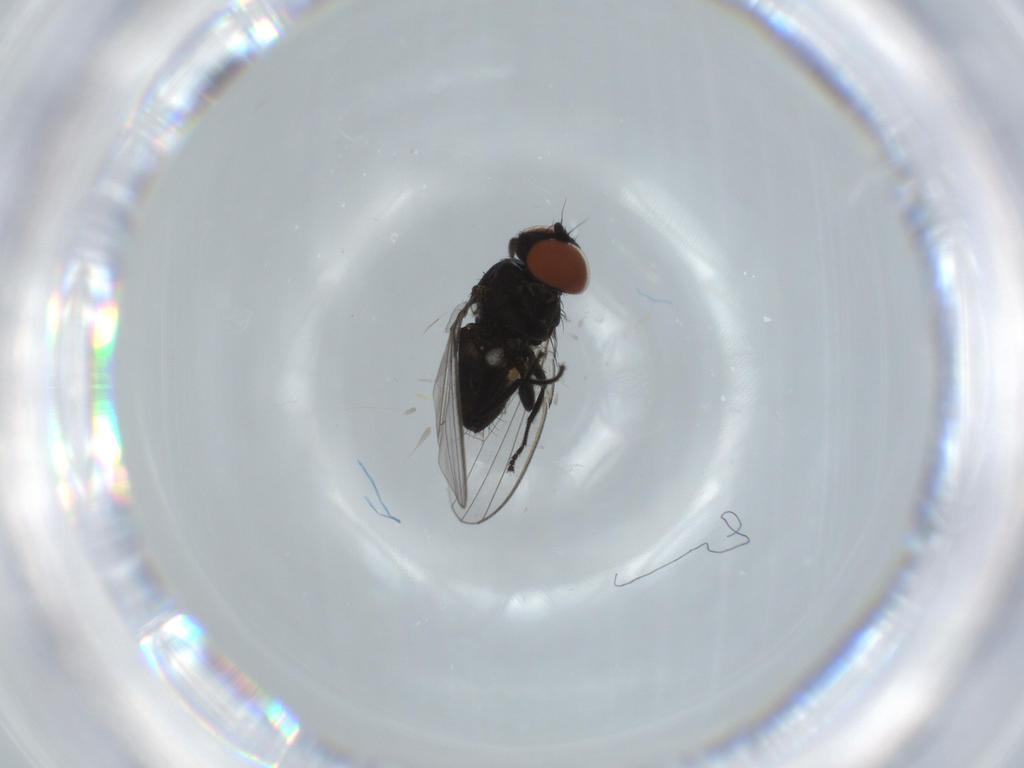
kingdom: Animalia
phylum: Arthropoda
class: Insecta
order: Diptera
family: Milichiidae
